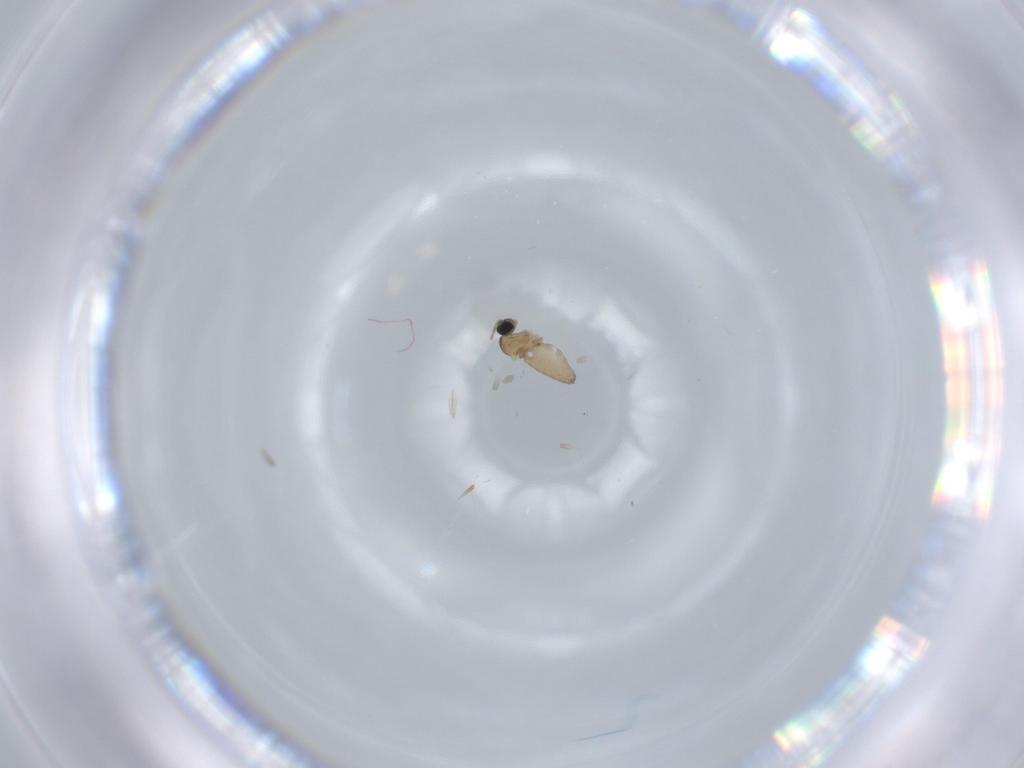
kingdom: Animalia
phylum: Arthropoda
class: Insecta
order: Diptera
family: Cecidomyiidae
